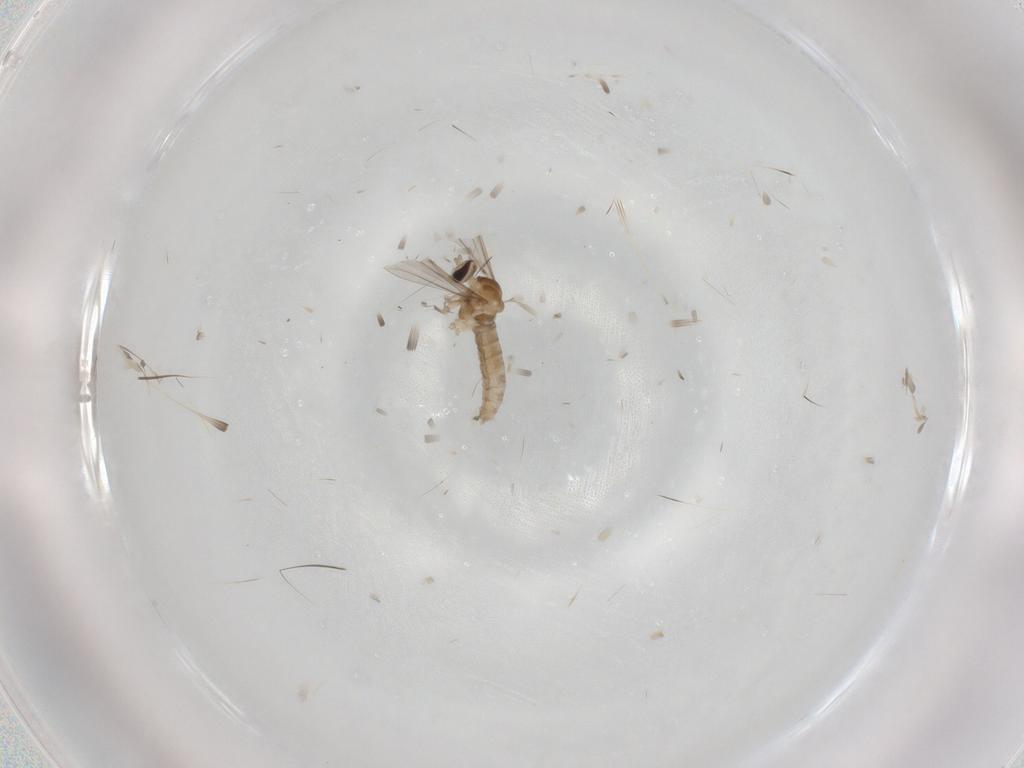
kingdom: Animalia
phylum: Arthropoda
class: Insecta
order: Diptera
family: Cecidomyiidae
